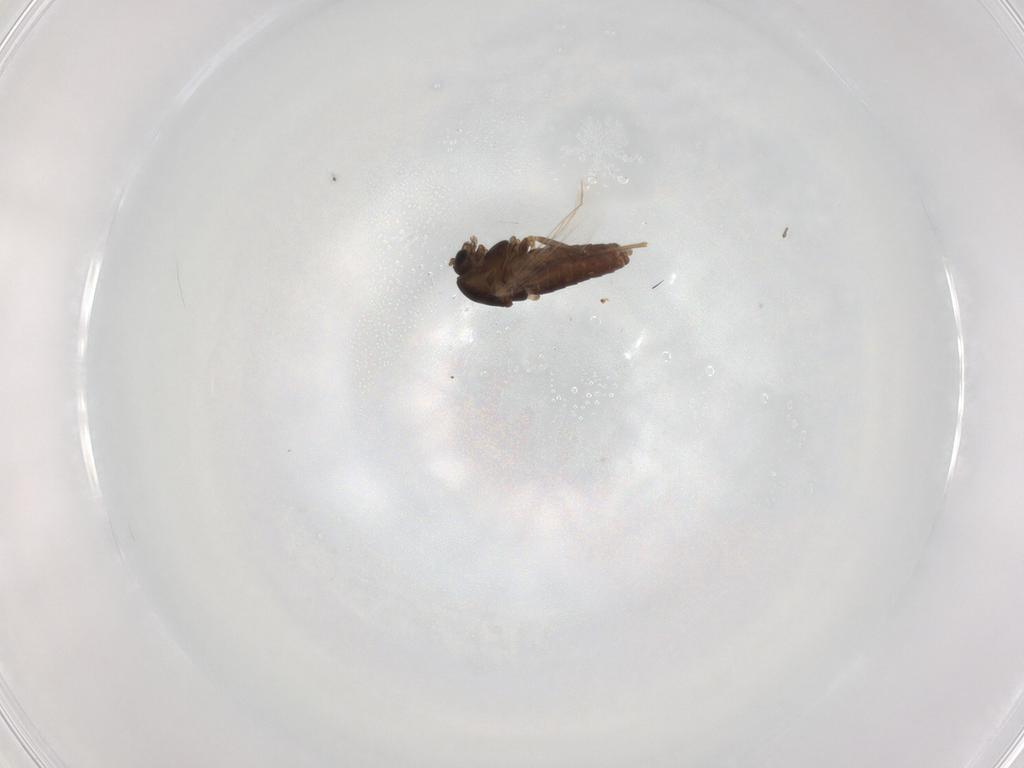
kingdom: Animalia
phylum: Arthropoda
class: Insecta
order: Diptera
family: Chironomidae
